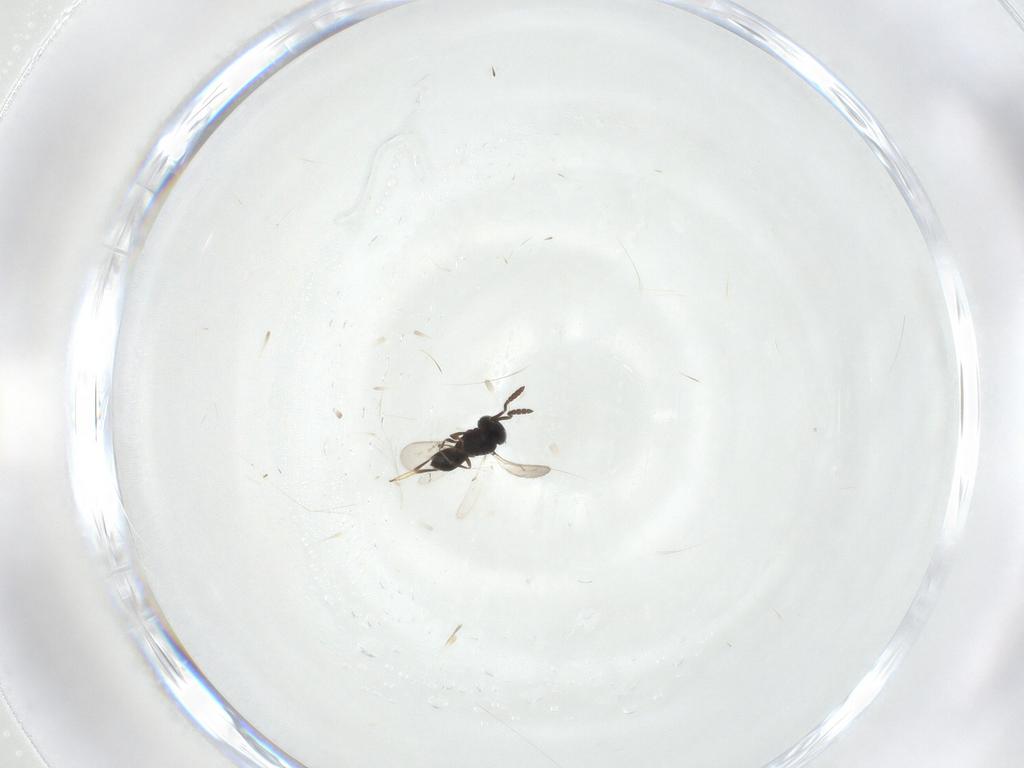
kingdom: Animalia
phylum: Arthropoda
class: Insecta
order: Hymenoptera
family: Scelionidae
